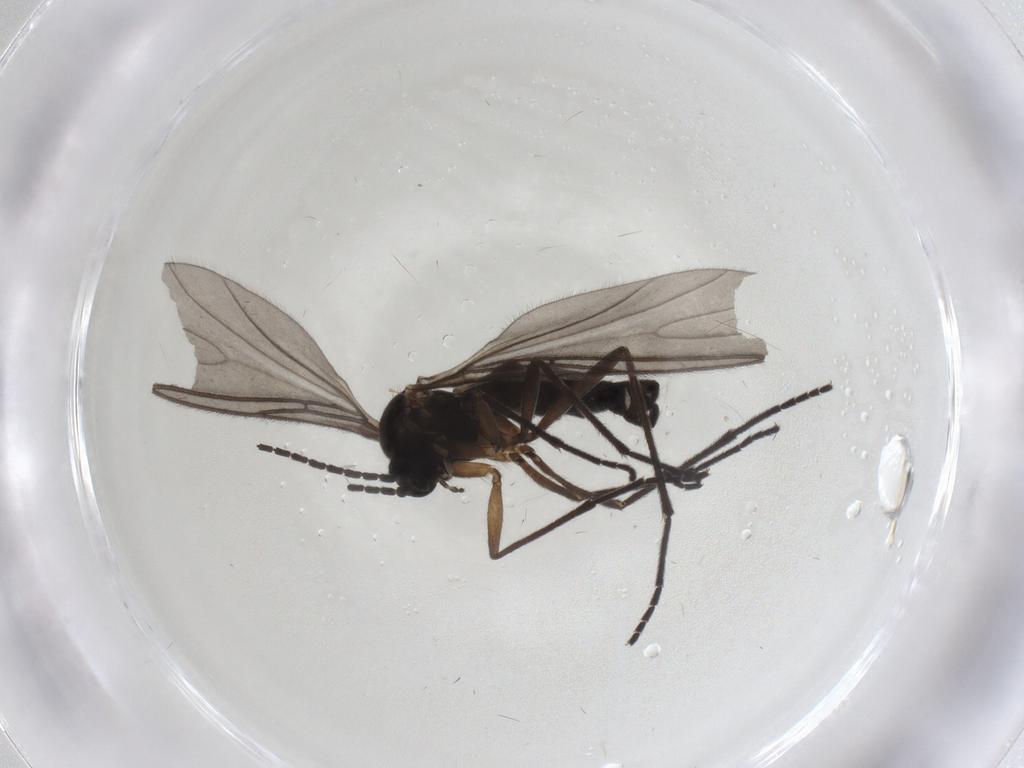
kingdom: Animalia
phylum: Arthropoda
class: Insecta
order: Diptera
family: Sciaridae
